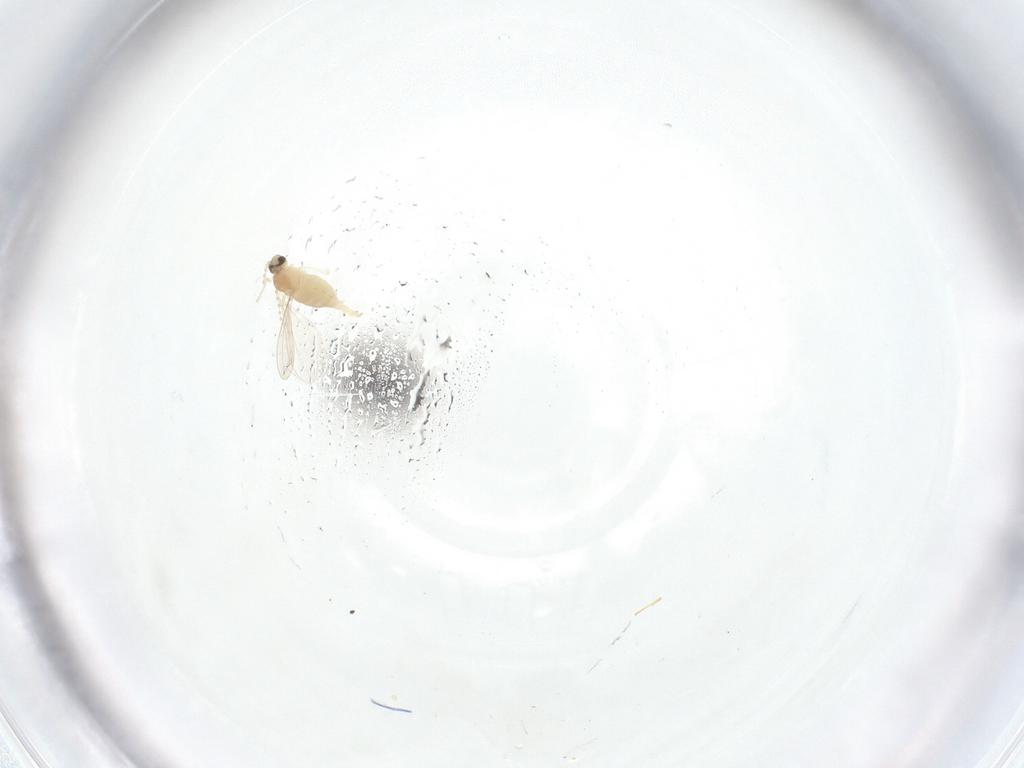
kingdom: Animalia
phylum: Arthropoda
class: Insecta
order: Diptera
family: Cecidomyiidae
